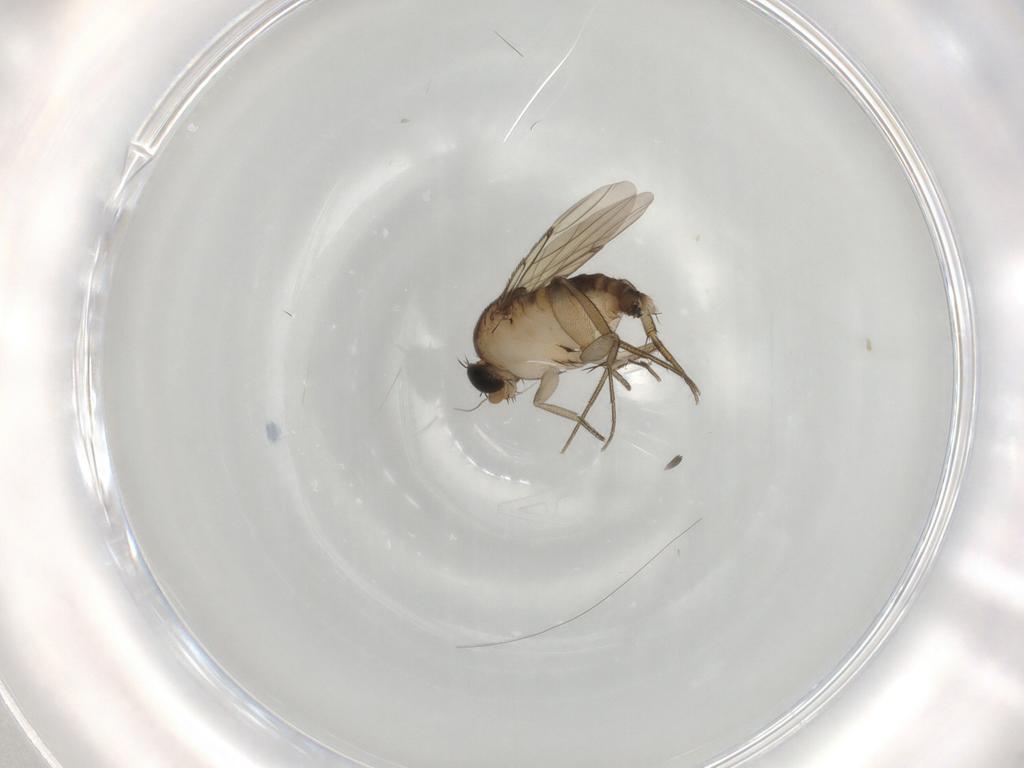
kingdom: Animalia
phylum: Arthropoda
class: Insecta
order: Diptera
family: Phoridae
